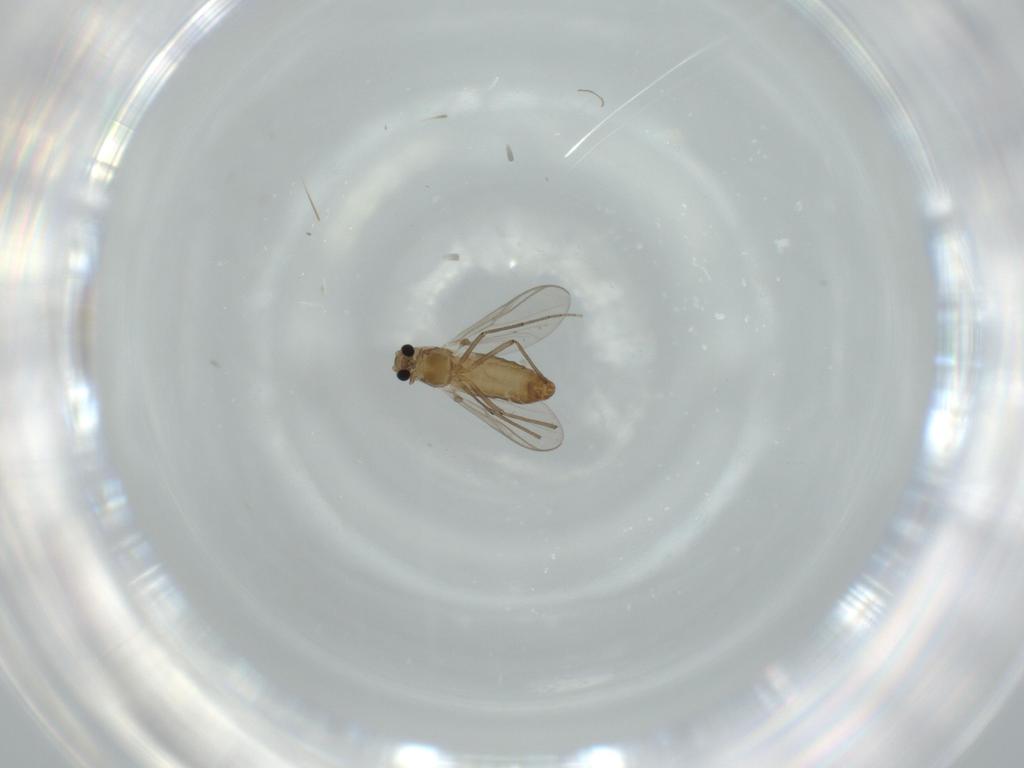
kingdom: Animalia
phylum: Arthropoda
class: Insecta
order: Diptera
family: Chironomidae
